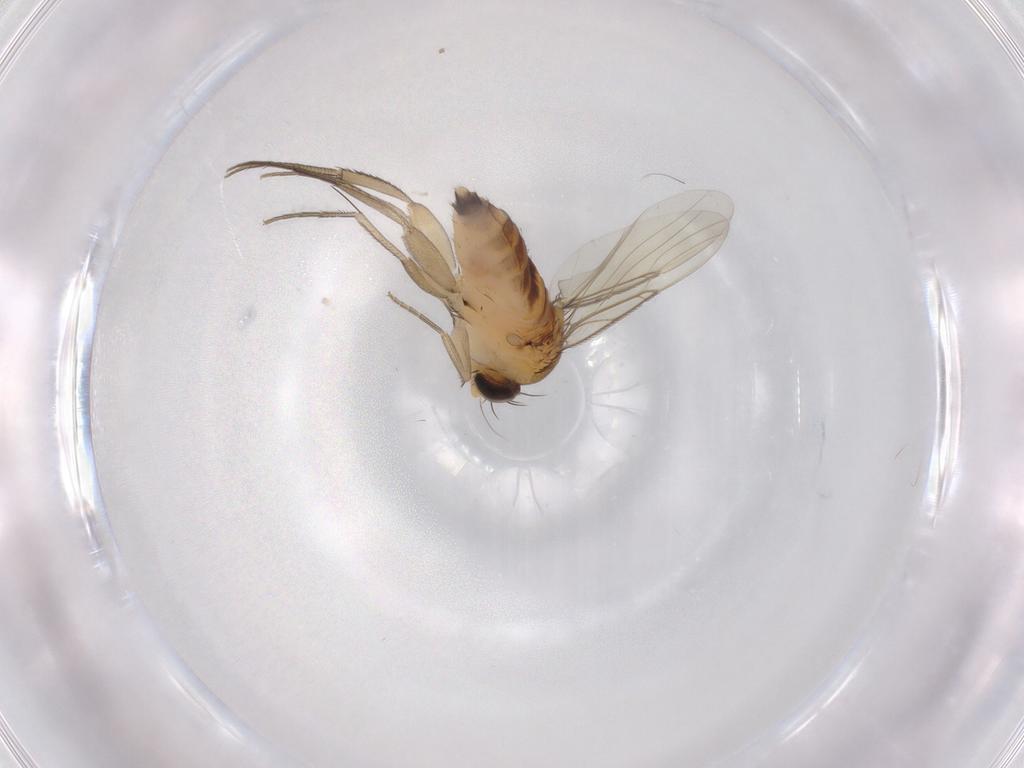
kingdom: Animalia
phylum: Arthropoda
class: Insecta
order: Diptera
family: Phoridae
